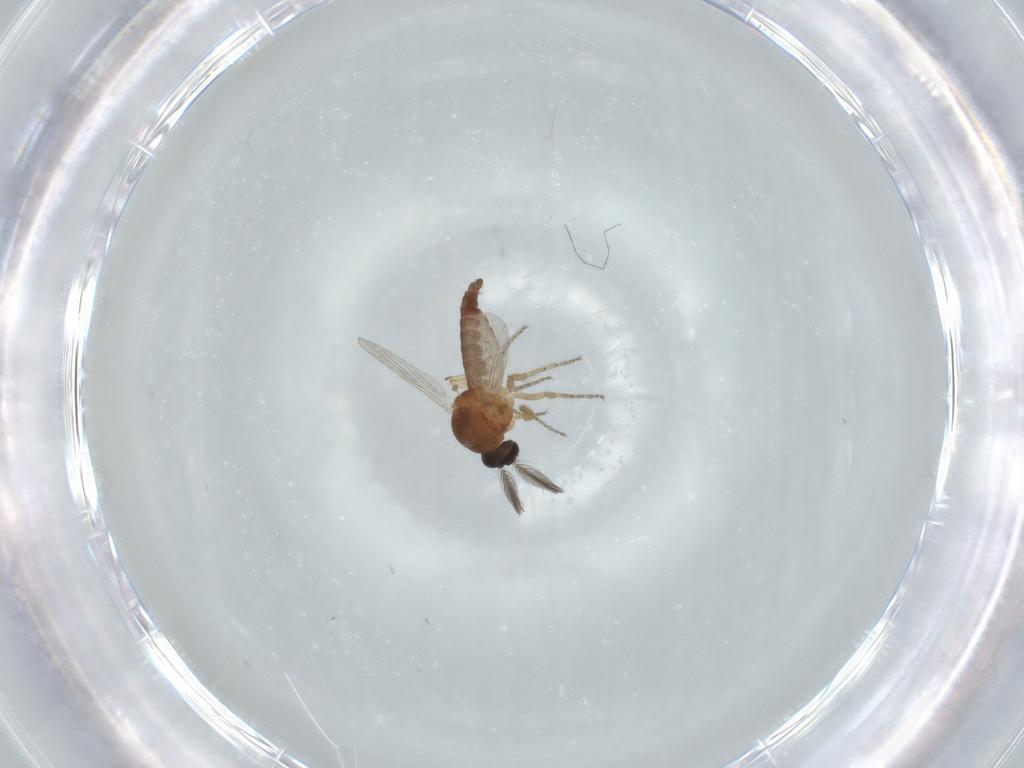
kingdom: Animalia
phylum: Arthropoda
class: Insecta
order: Diptera
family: Ceratopogonidae
